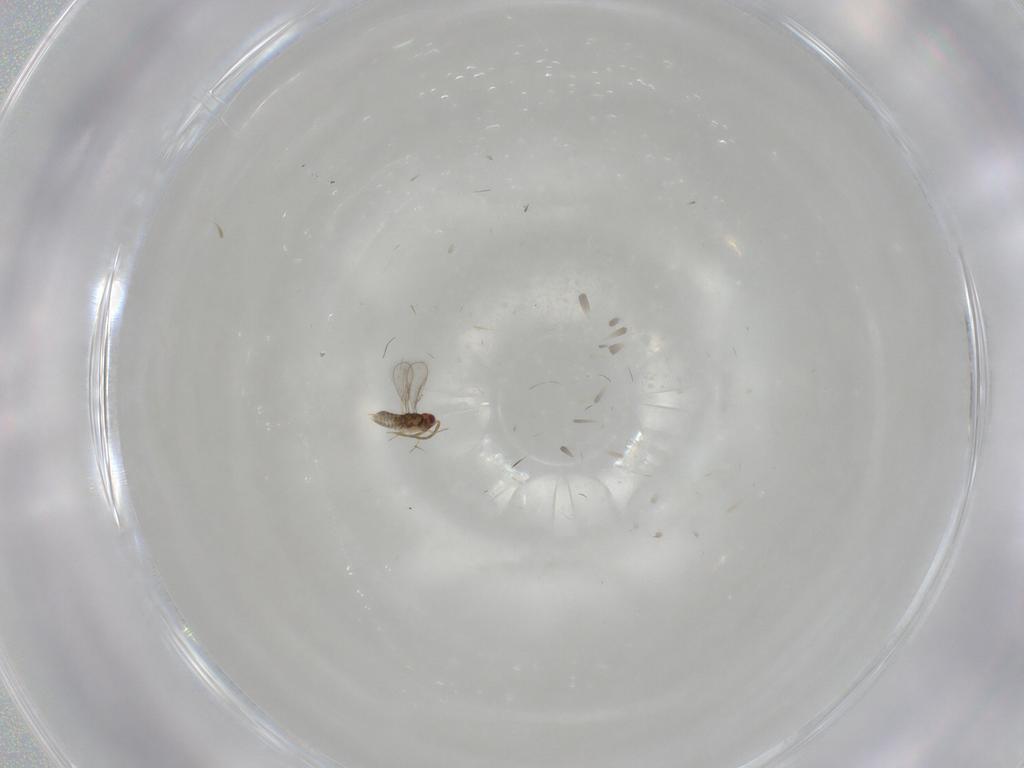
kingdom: Animalia
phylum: Arthropoda
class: Insecta
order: Hymenoptera
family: Aphelinidae
